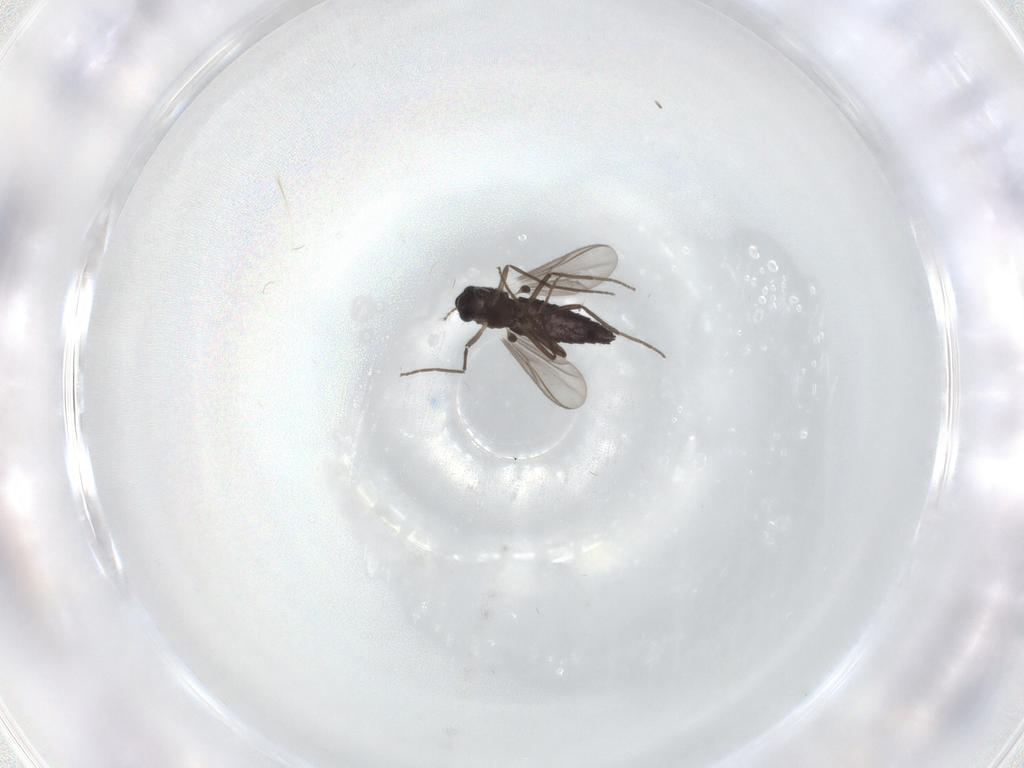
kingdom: Animalia
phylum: Arthropoda
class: Insecta
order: Diptera
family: Chironomidae
